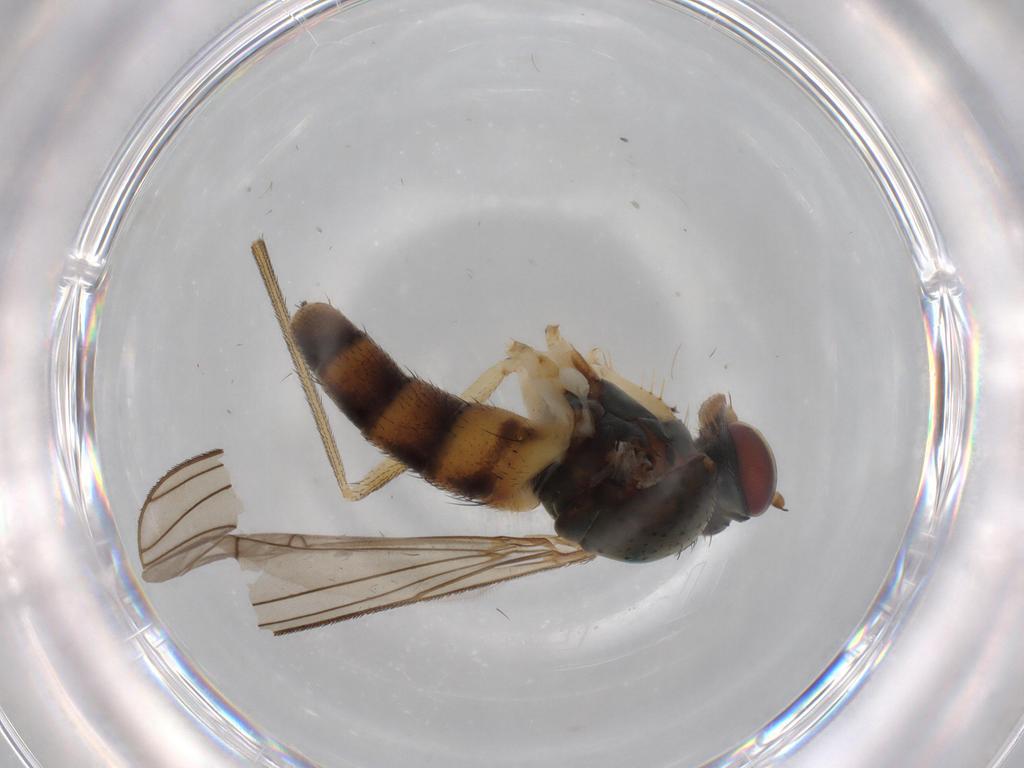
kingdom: Animalia
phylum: Arthropoda
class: Insecta
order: Diptera
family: Dolichopodidae
